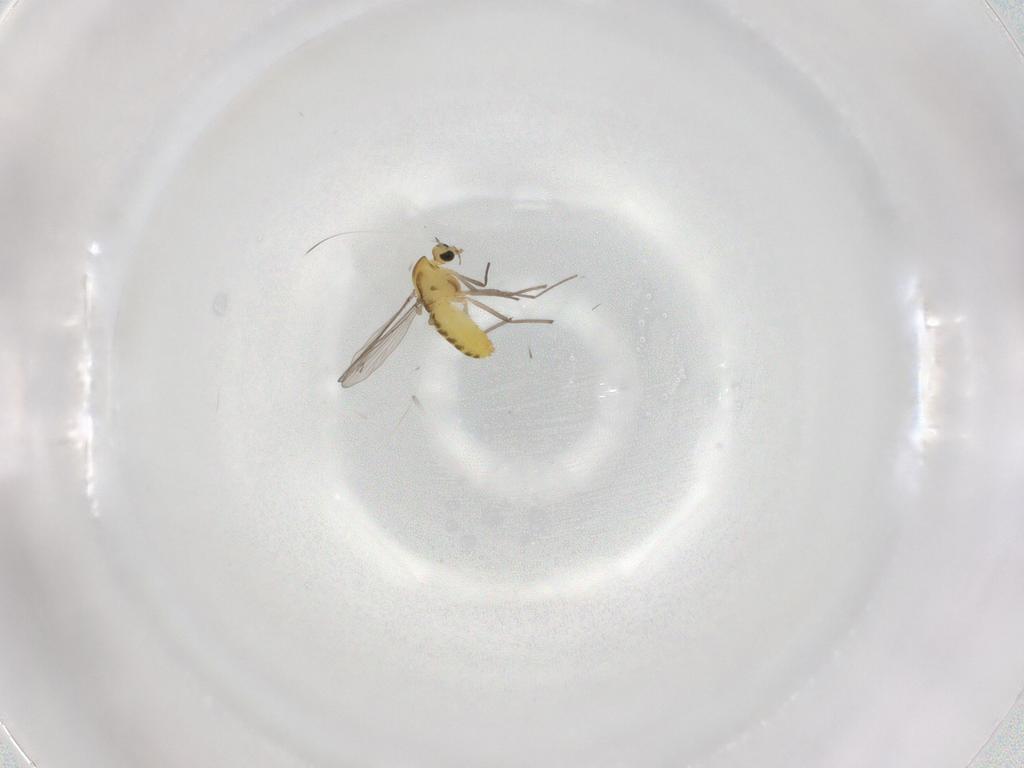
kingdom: Animalia
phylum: Arthropoda
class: Insecta
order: Diptera
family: Chironomidae
